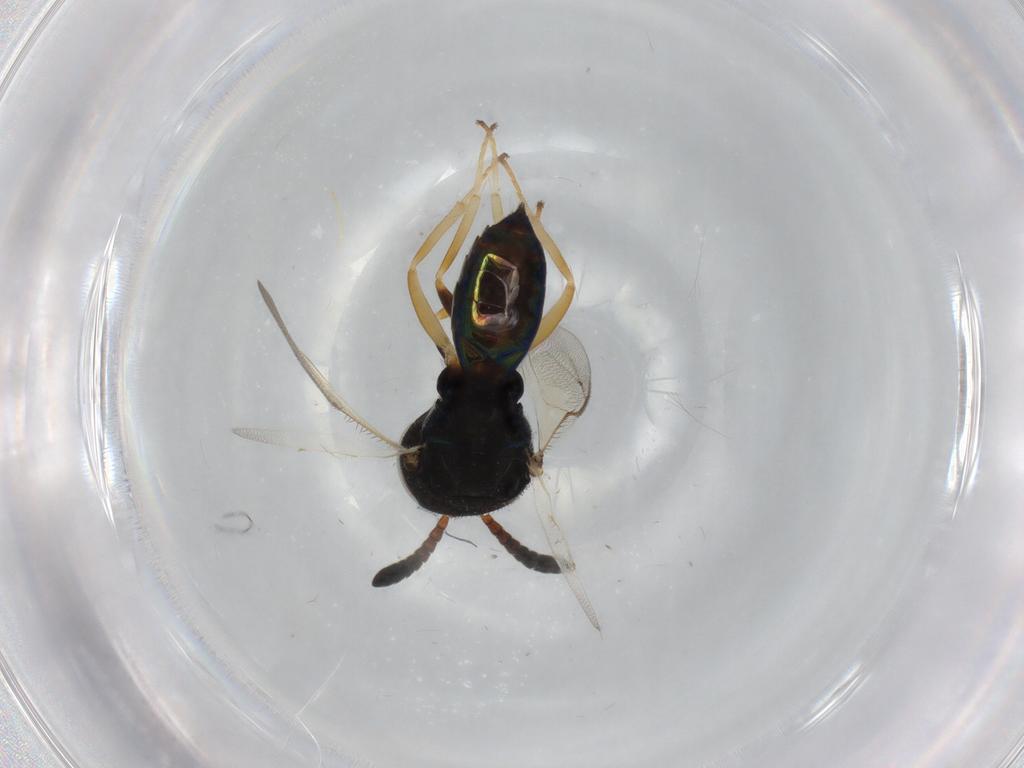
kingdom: Animalia
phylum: Arthropoda
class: Insecta
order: Hymenoptera
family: Pteromalidae
